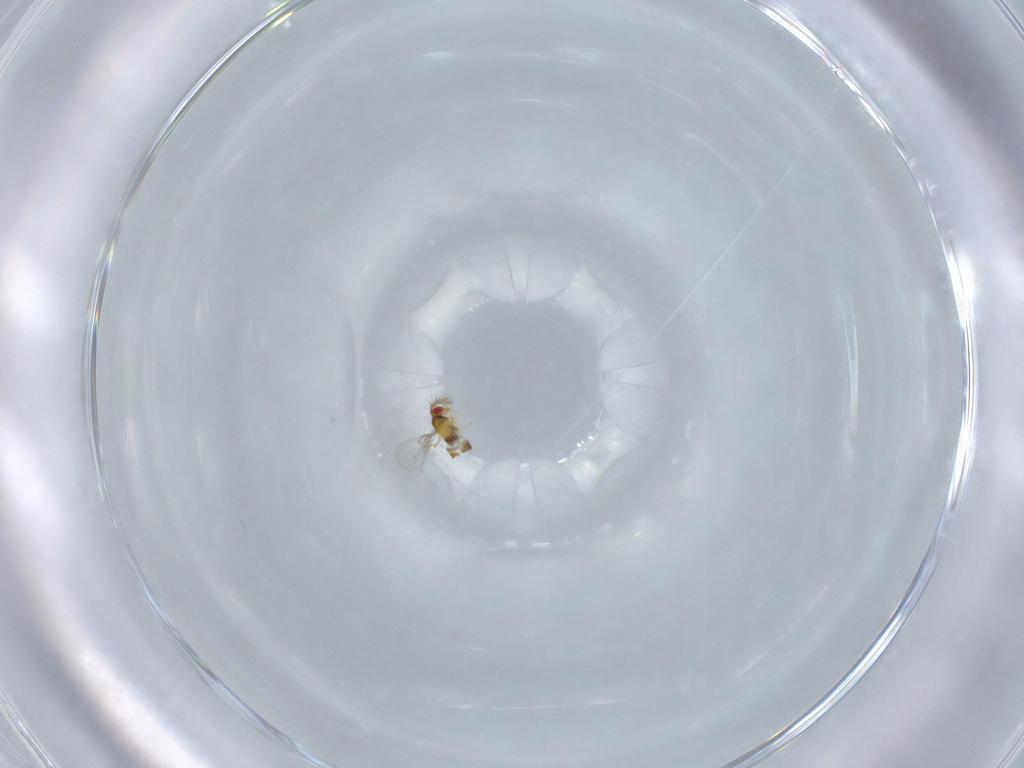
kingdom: Animalia
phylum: Arthropoda
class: Insecta
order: Hymenoptera
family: Trichogrammatidae
